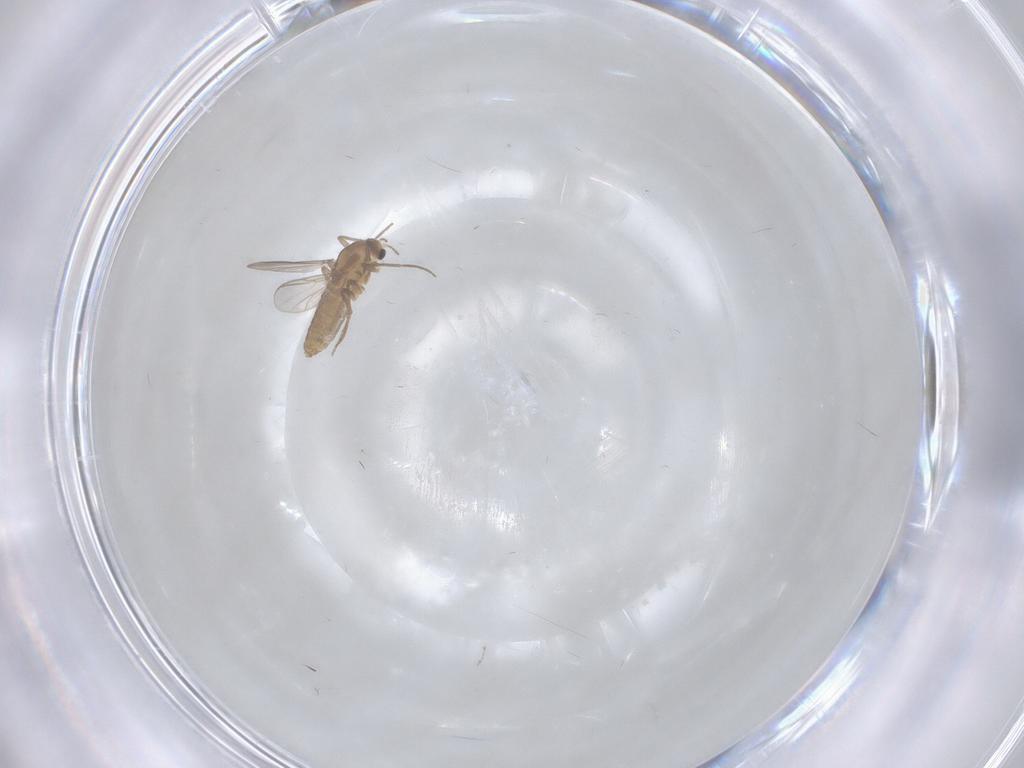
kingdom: Animalia
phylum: Arthropoda
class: Insecta
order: Diptera
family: Chironomidae
